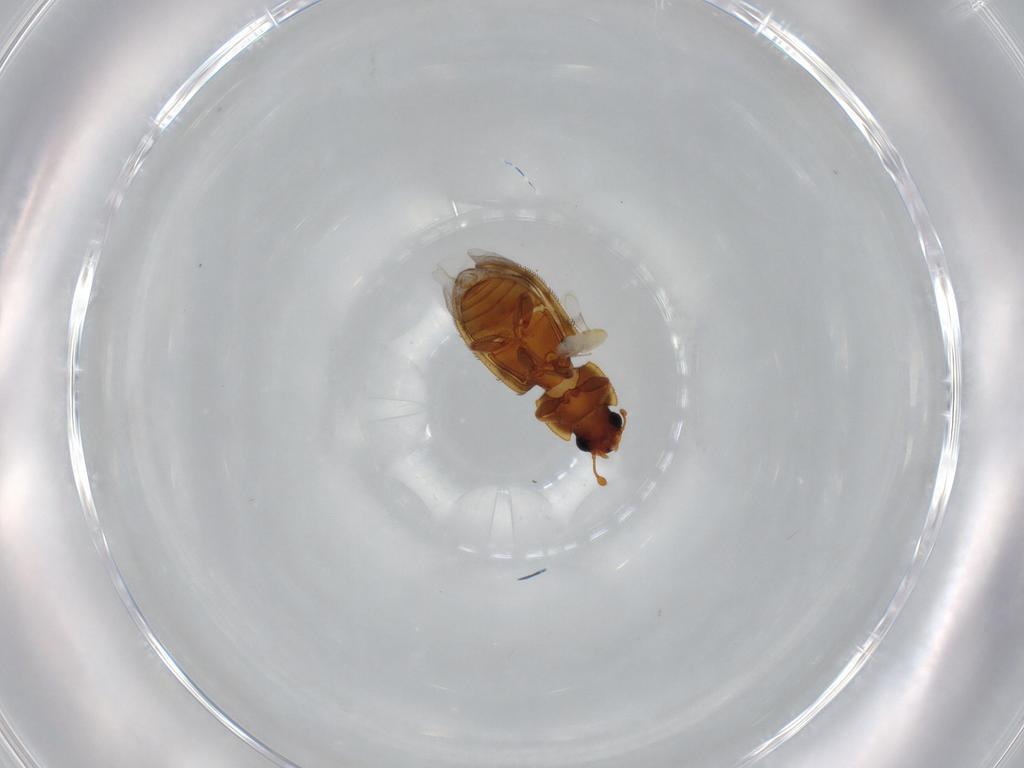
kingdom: Animalia
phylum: Arthropoda
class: Insecta
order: Coleoptera
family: Zopheridae
